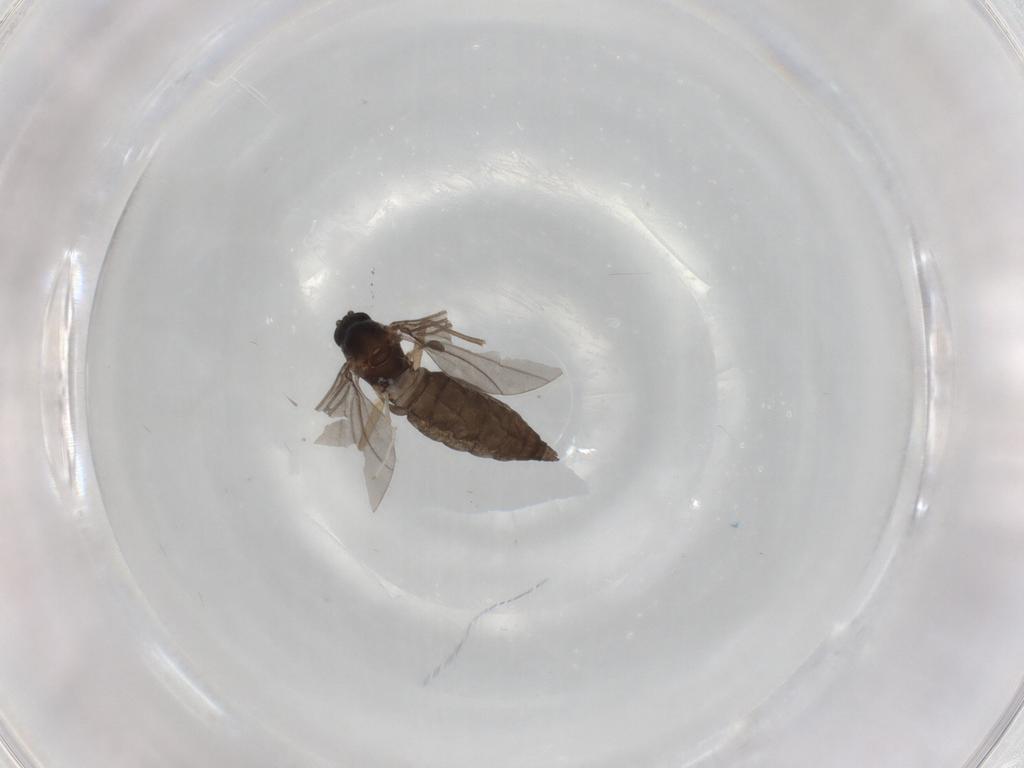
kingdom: Animalia
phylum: Arthropoda
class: Insecta
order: Diptera
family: Sciaridae
